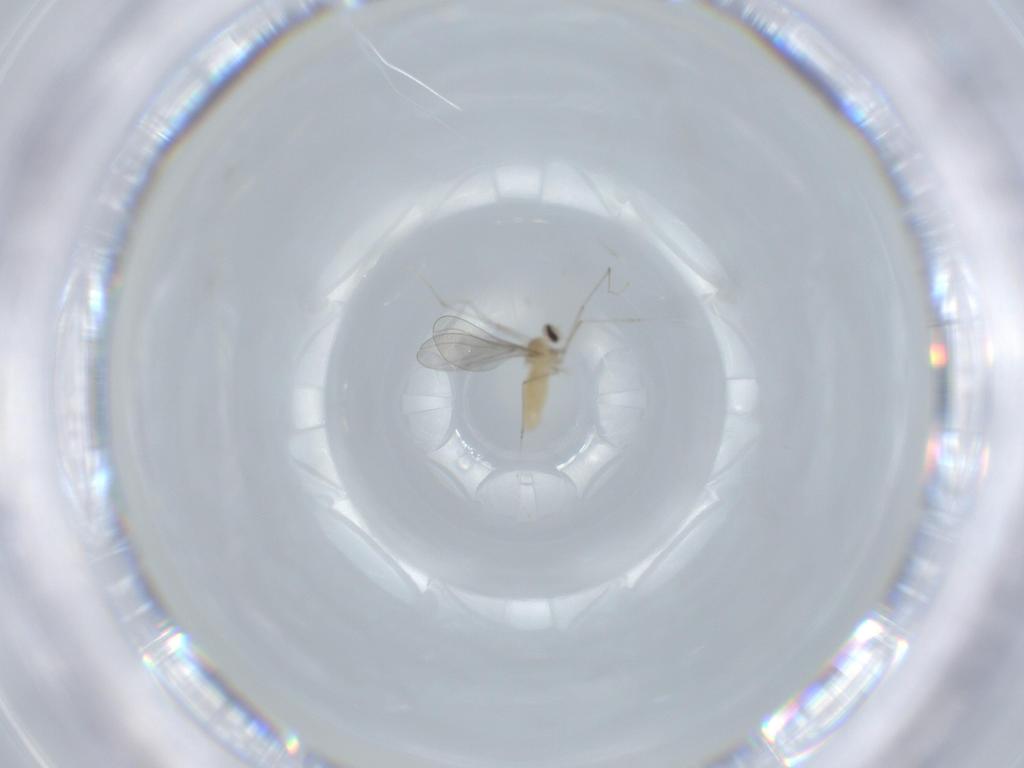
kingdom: Animalia
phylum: Arthropoda
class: Insecta
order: Diptera
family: Cecidomyiidae
